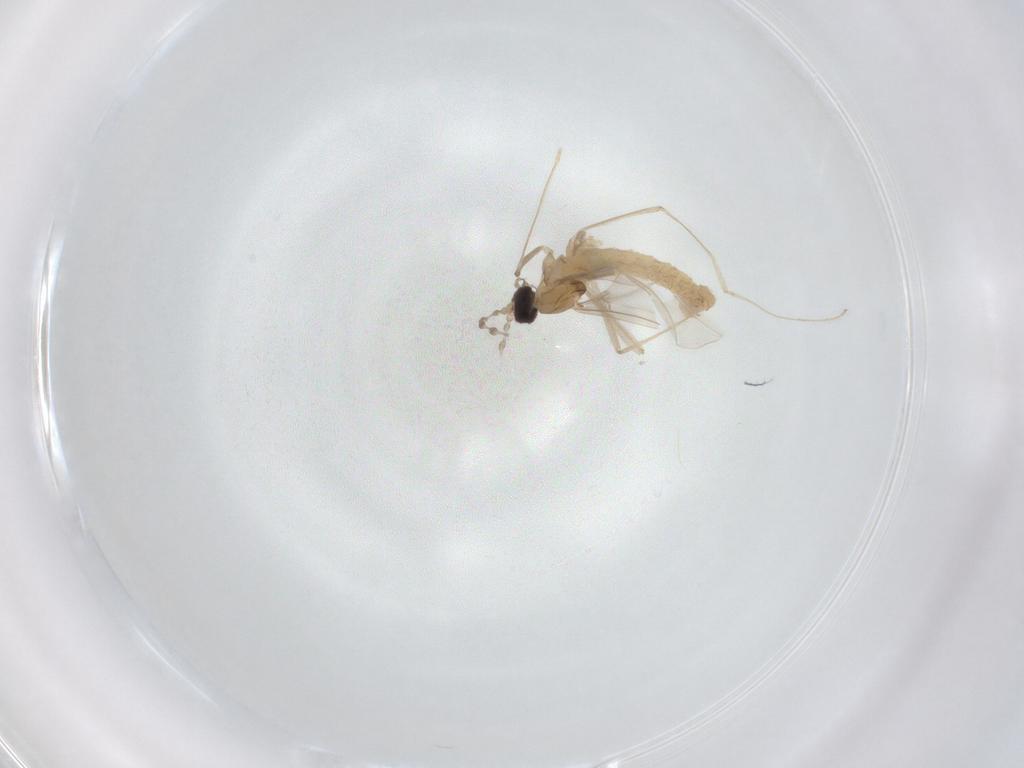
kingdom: Animalia
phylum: Arthropoda
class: Insecta
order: Diptera
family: Cecidomyiidae
